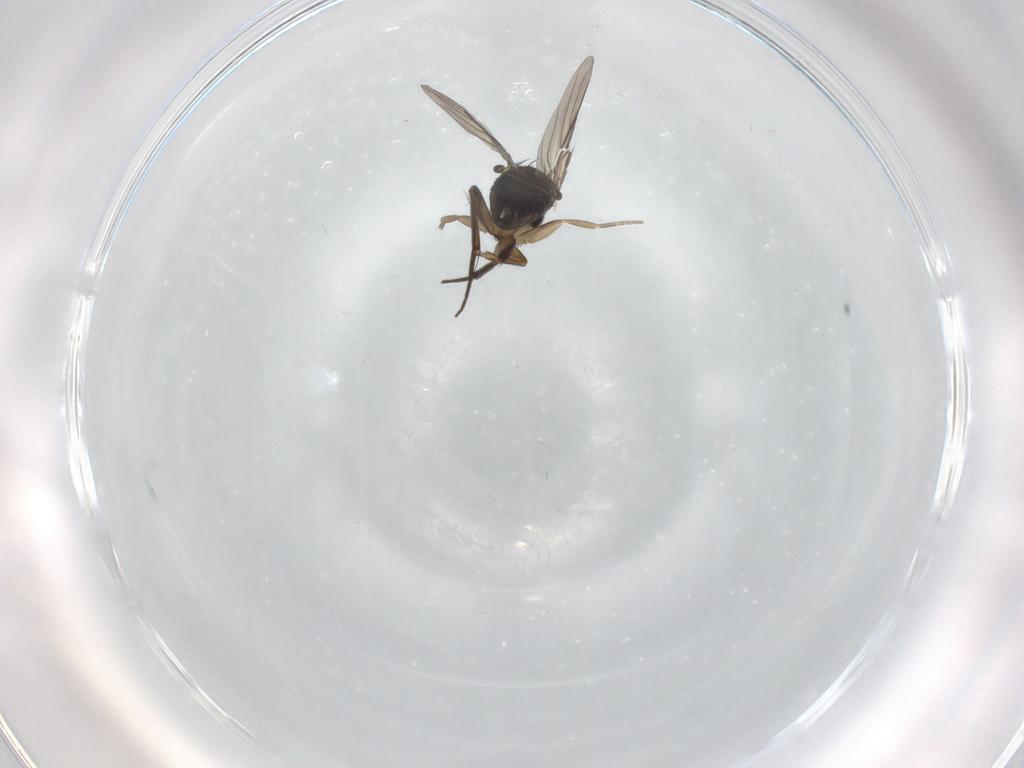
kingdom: Animalia
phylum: Arthropoda
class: Insecta
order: Diptera
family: Phoridae
